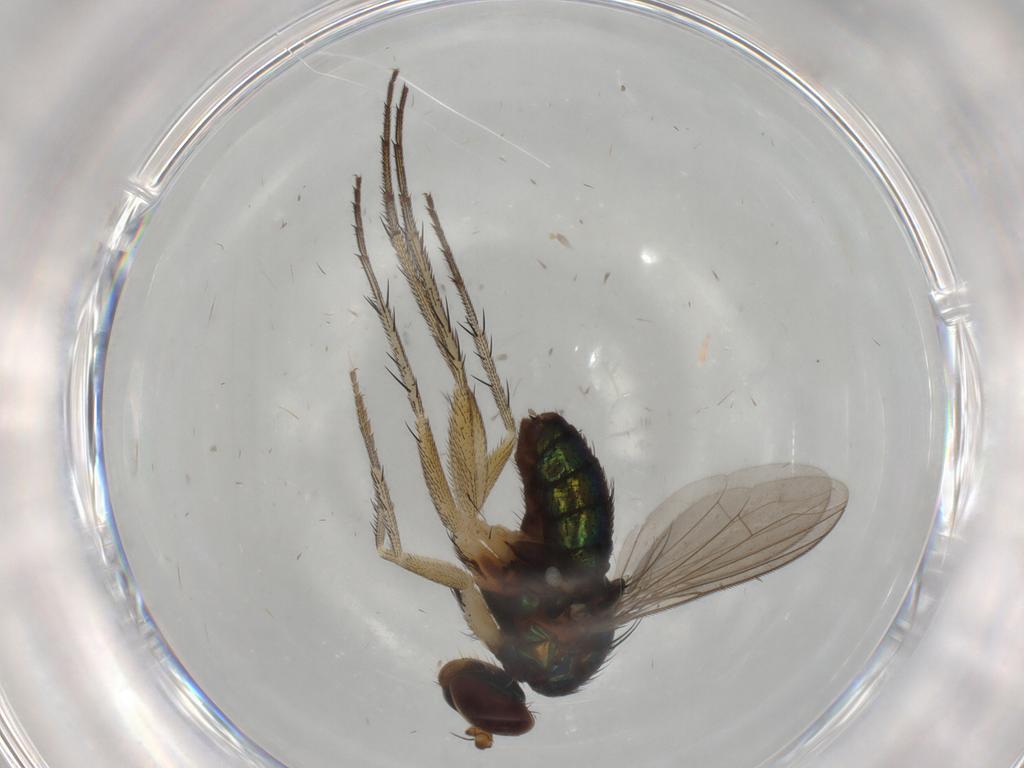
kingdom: Animalia
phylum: Arthropoda
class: Insecta
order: Diptera
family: Dolichopodidae
